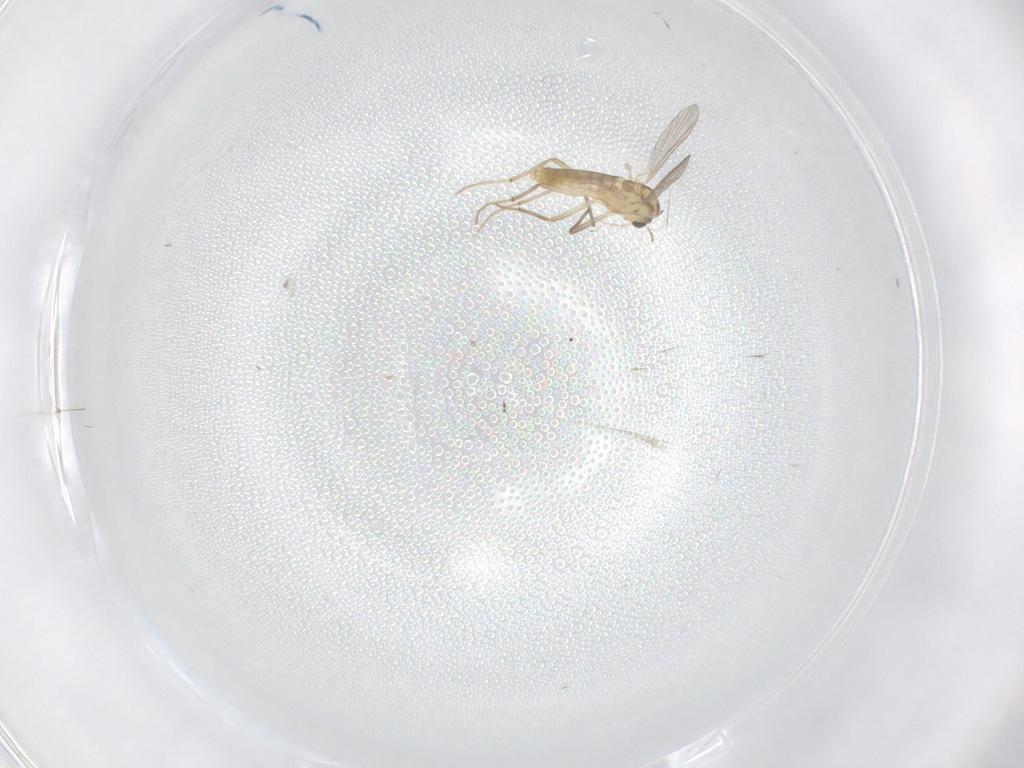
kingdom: Animalia
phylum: Arthropoda
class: Insecta
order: Diptera
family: Chironomidae
